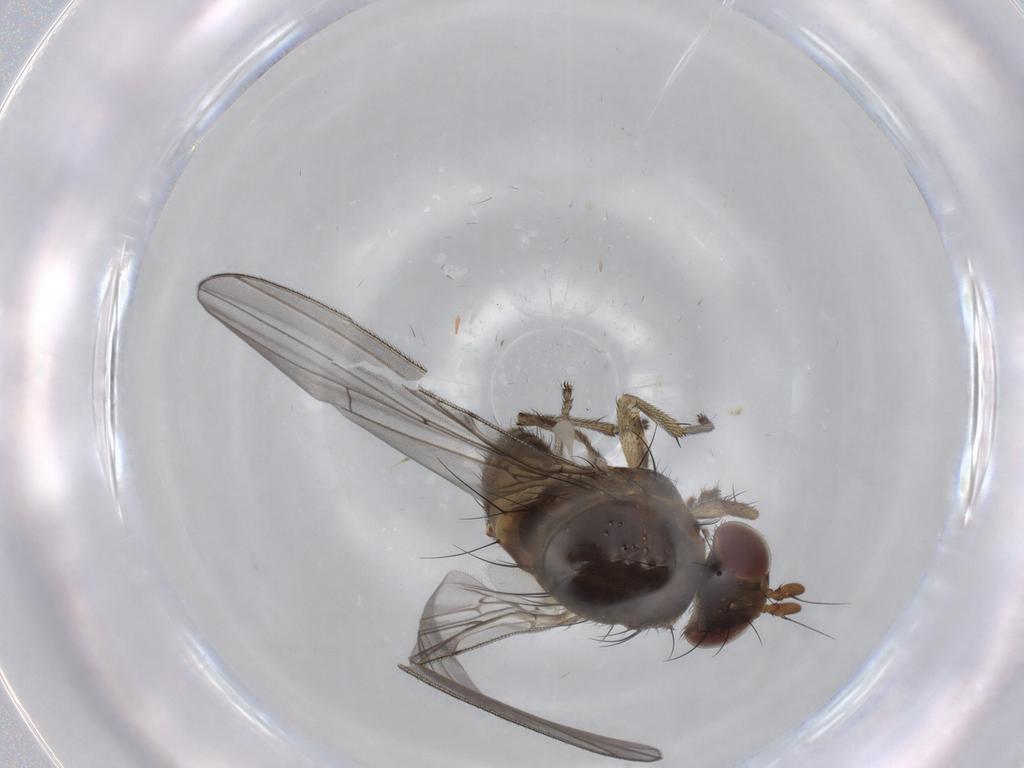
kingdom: Animalia
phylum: Arthropoda
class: Insecta
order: Diptera
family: Lauxaniidae
